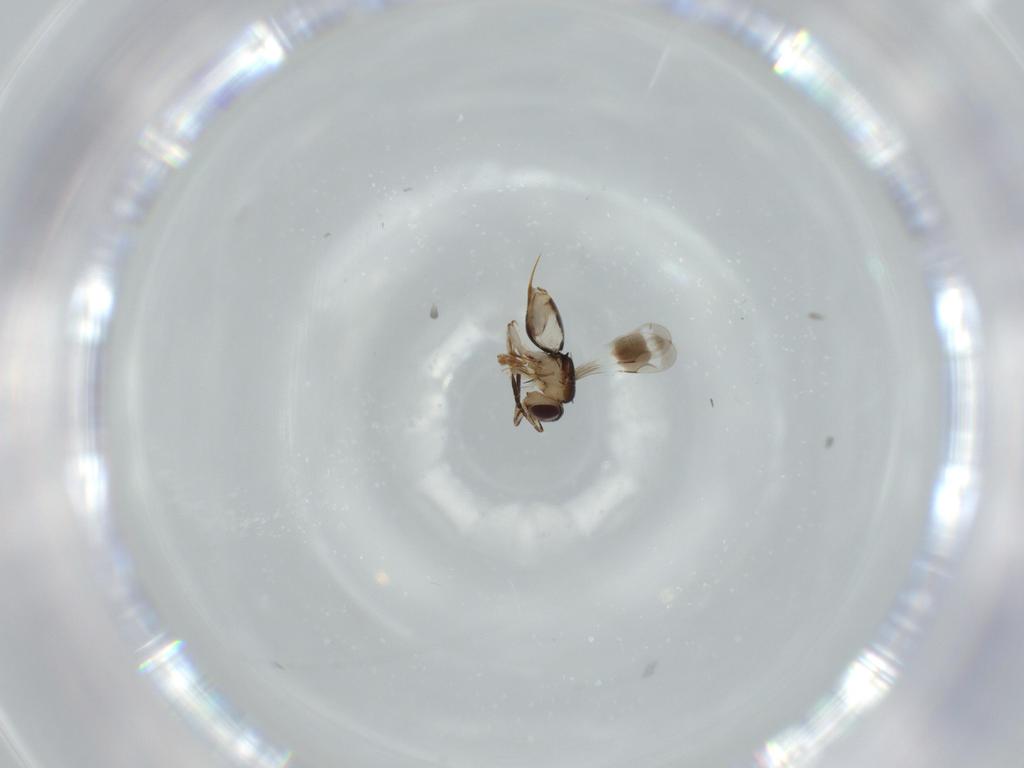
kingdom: Animalia
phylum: Arthropoda
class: Insecta
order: Hymenoptera
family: Ceraphronidae
